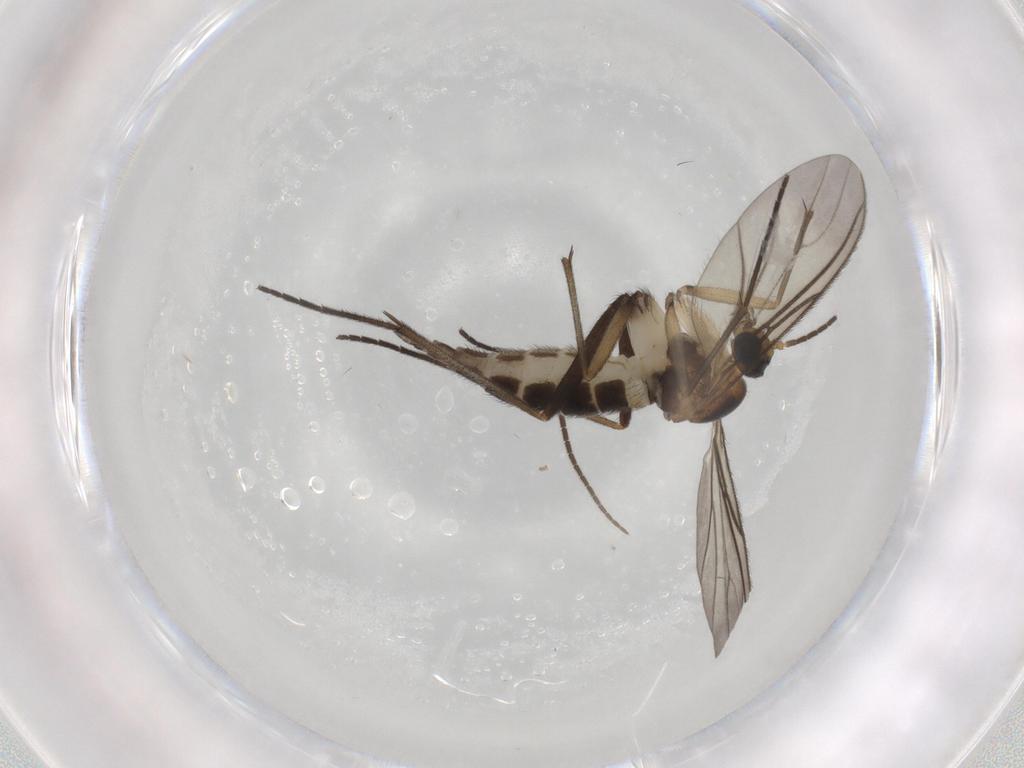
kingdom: Animalia
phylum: Arthropoda
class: Insecta
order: Diptera
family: Sciaridae
